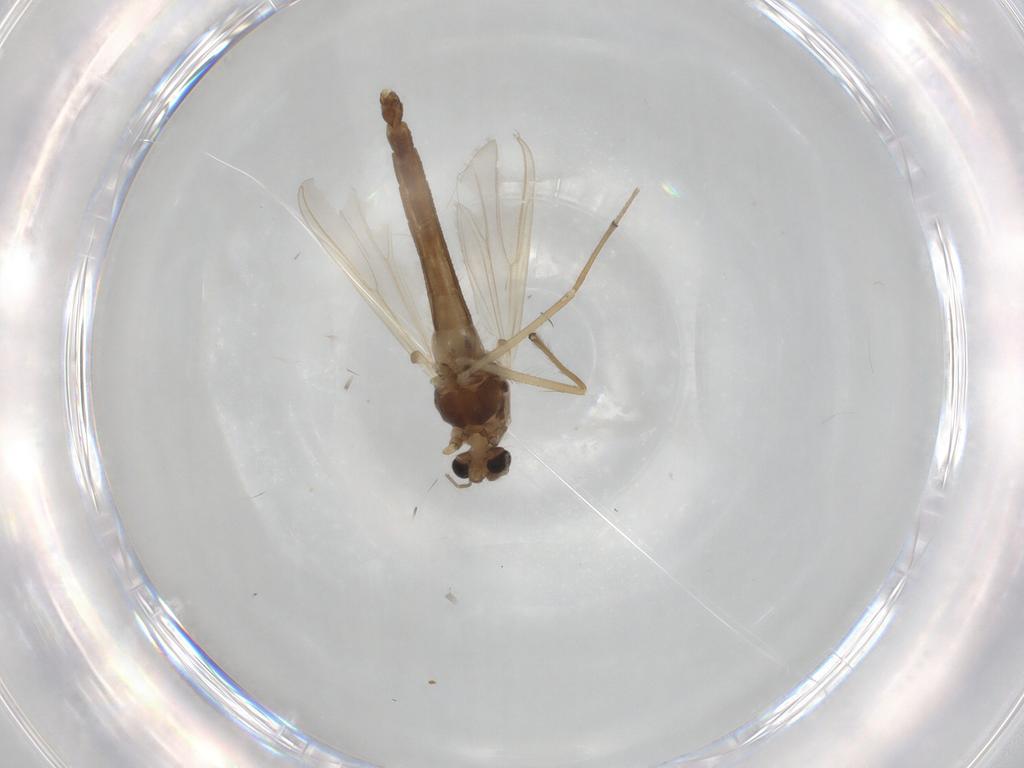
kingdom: Animalia
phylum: Arthropoda
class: Insecta
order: Diptera
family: Chironomidae
